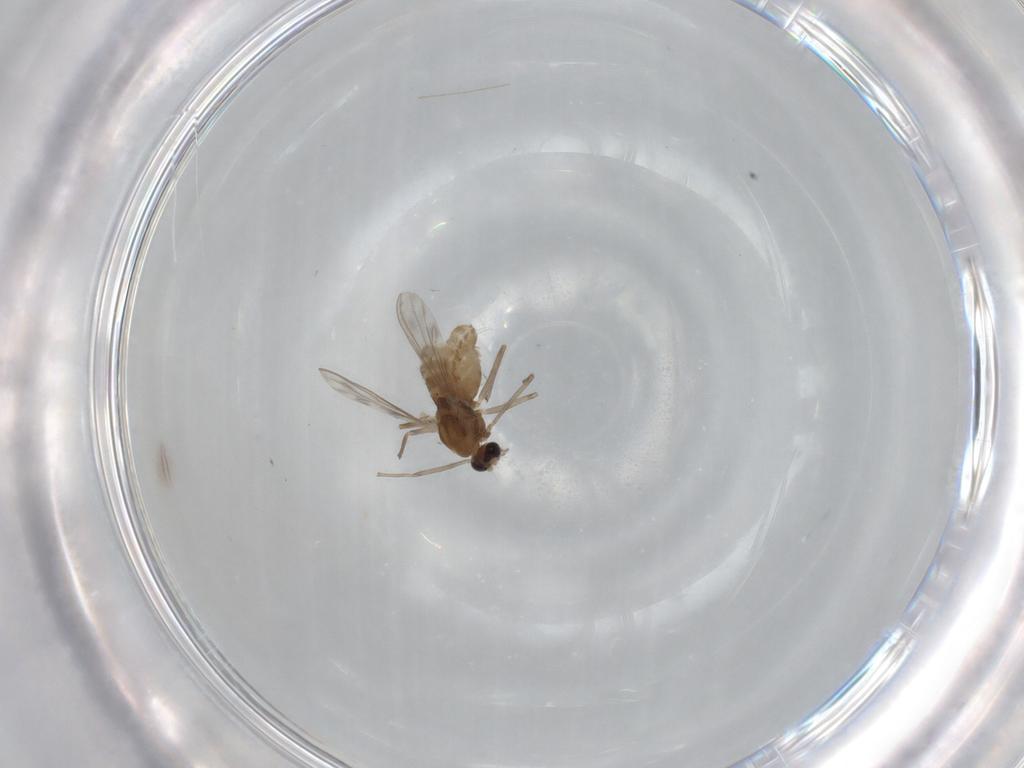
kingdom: Animalia
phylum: Arthropoda
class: Insecta
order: Diptera
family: Chironomidae
